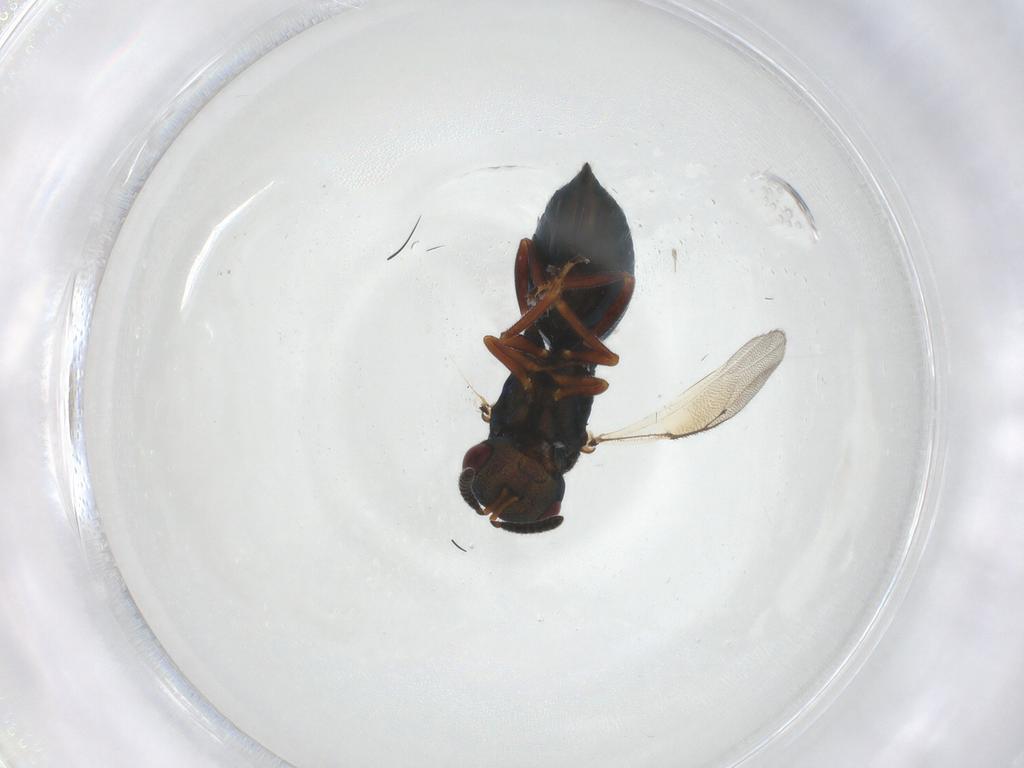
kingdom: Animalia
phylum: Arthropoda
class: Insecta
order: Hymenoptera
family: Pteromalidae
